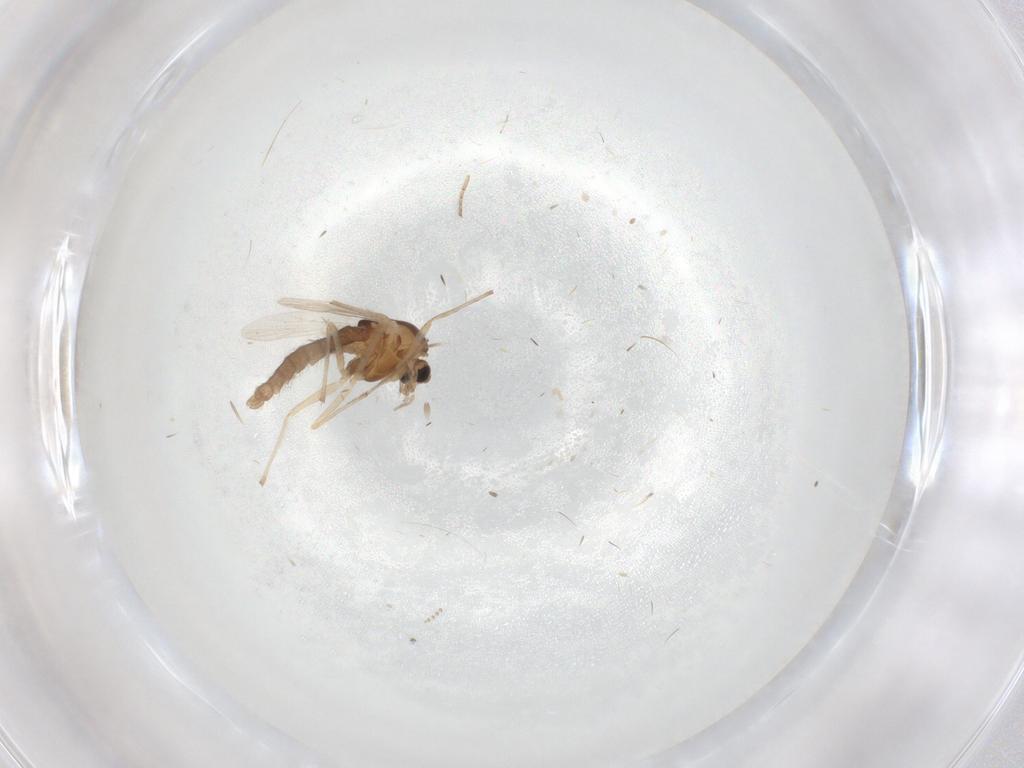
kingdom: Animalia
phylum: Arthropoda
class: Insecta
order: Diptera
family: Chironomidae
